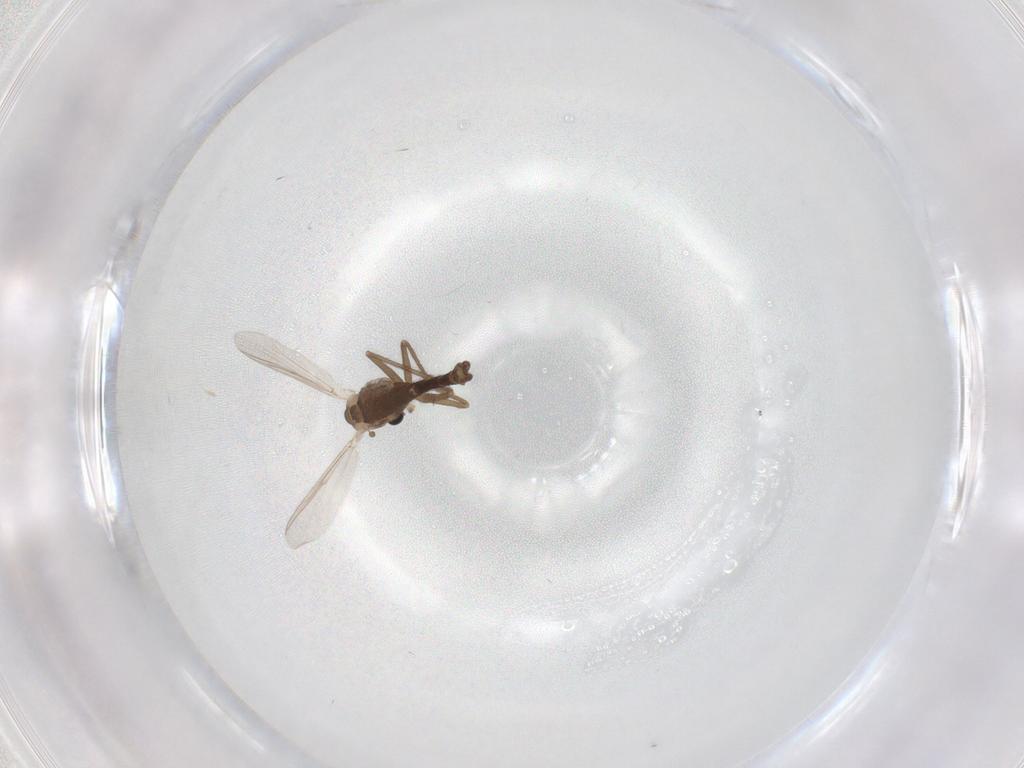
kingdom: Animalia
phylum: Arthropoda
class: Insecta
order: Diptera
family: Chironomidae
